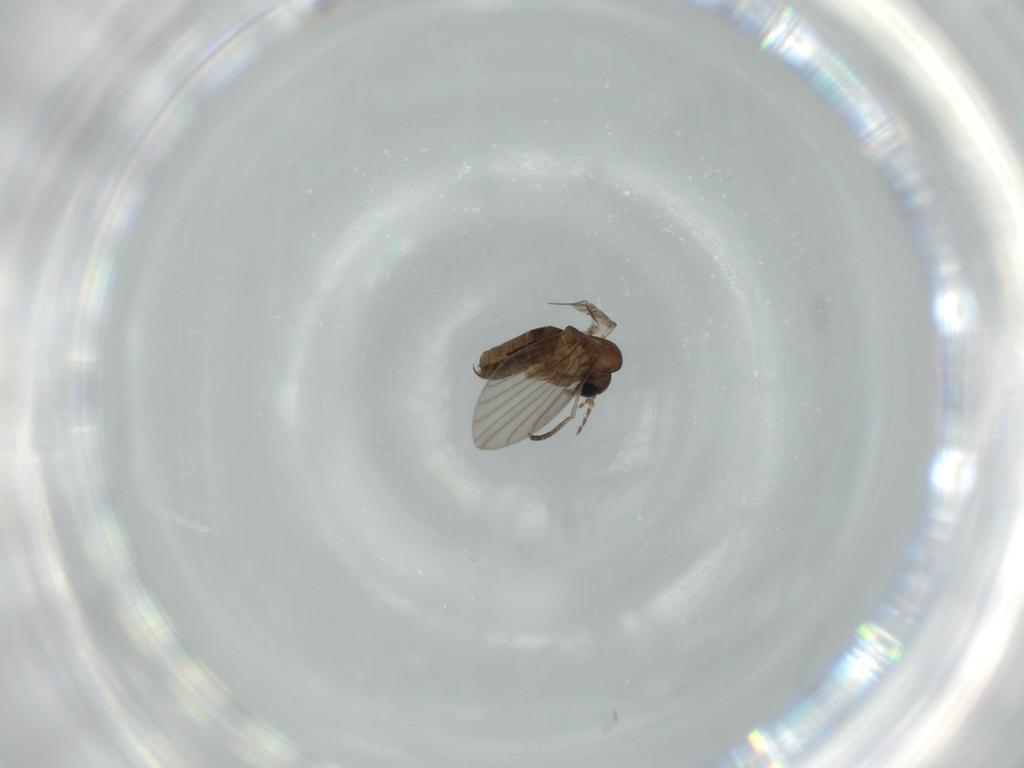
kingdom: Animalia
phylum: Arthropoda
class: Insecta
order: Diptera
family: Psychodidae
